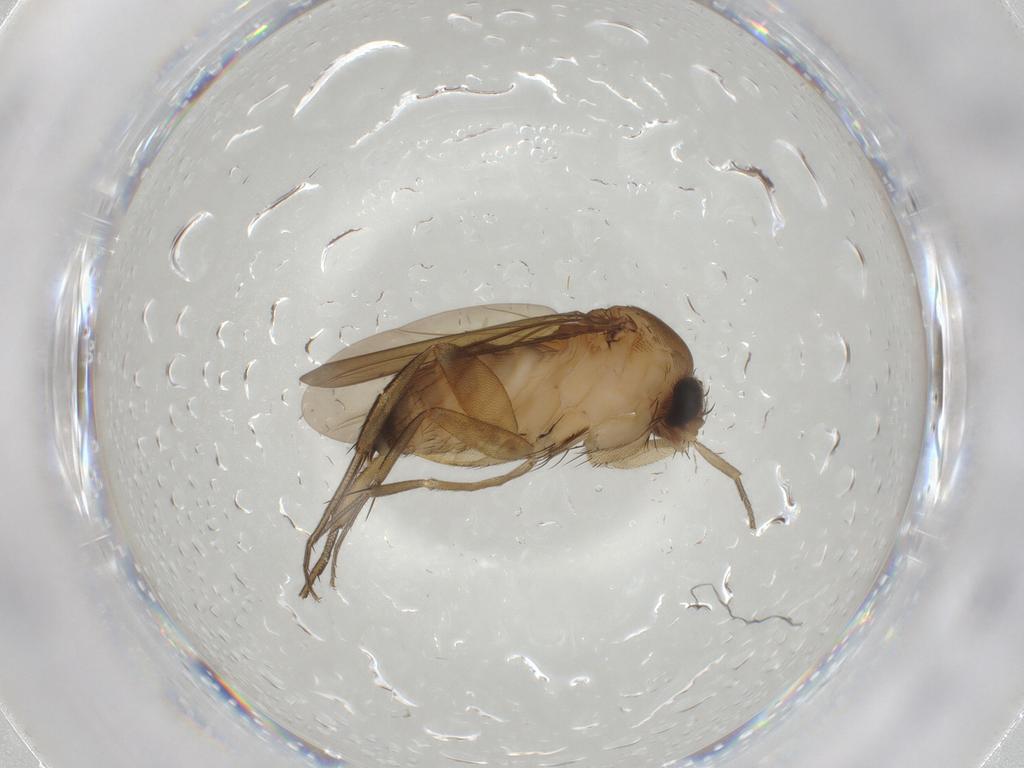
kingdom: Animalia
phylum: Arthropoda
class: Insecta
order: Diptera
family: Phoridae
